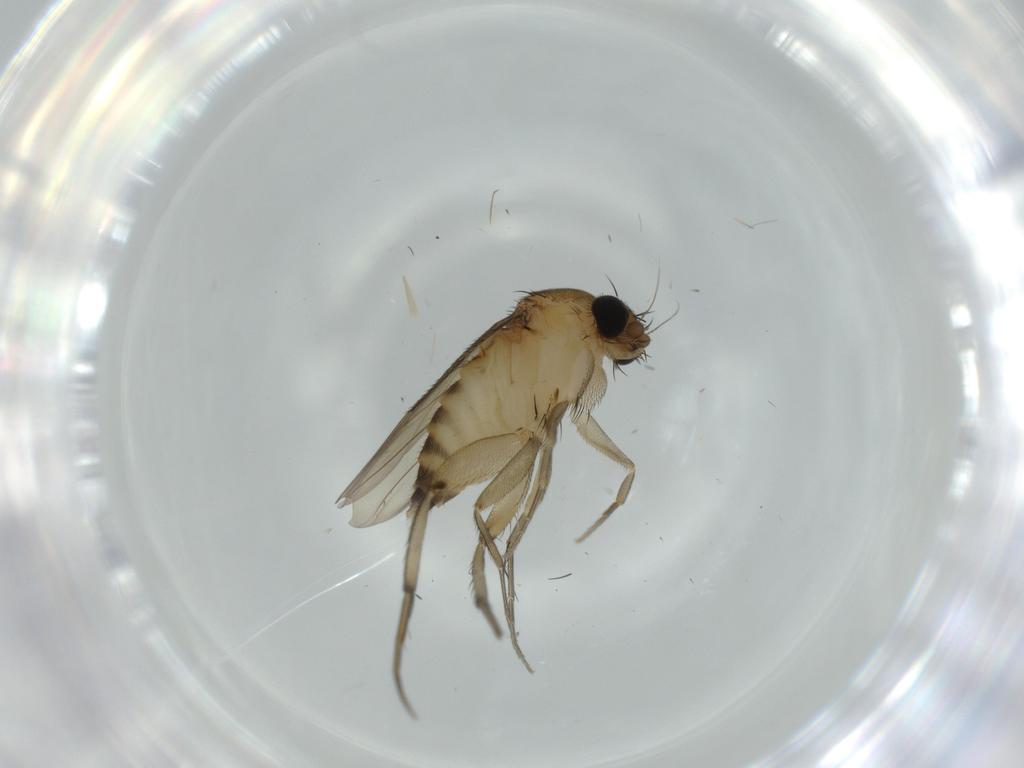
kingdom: Animalia
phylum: Arthropoda
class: Insecta
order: Diptera
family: Phoridae
